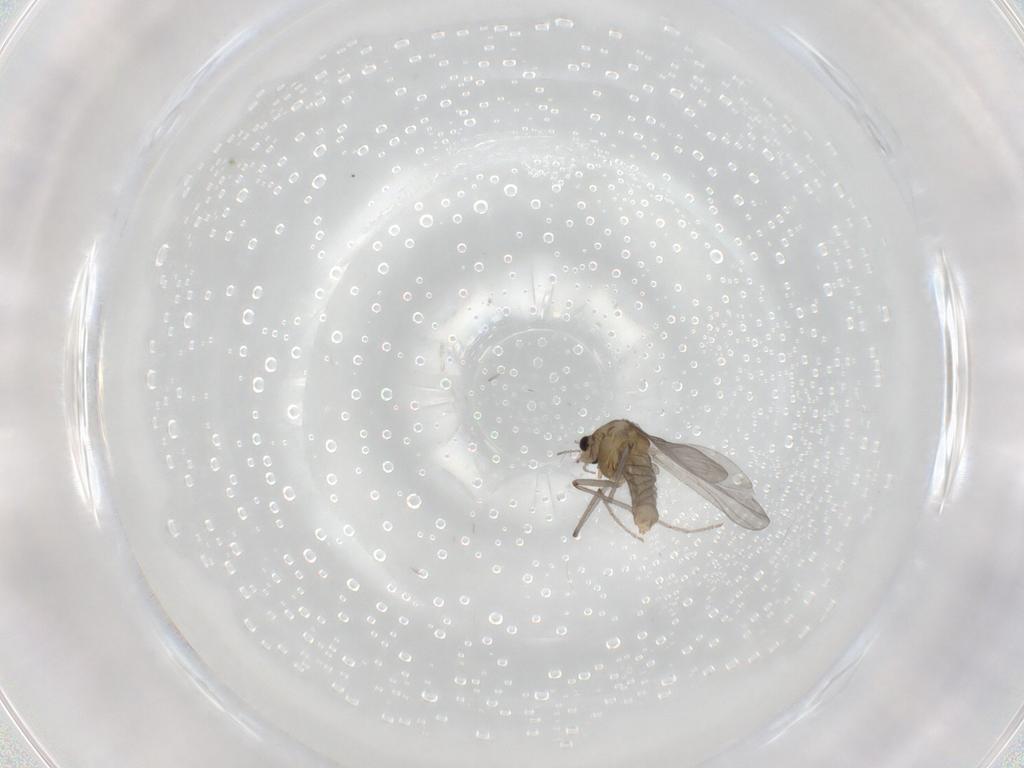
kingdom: Animalia
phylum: Arthropoda
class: Insecta
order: Diptera
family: Chironomidae
